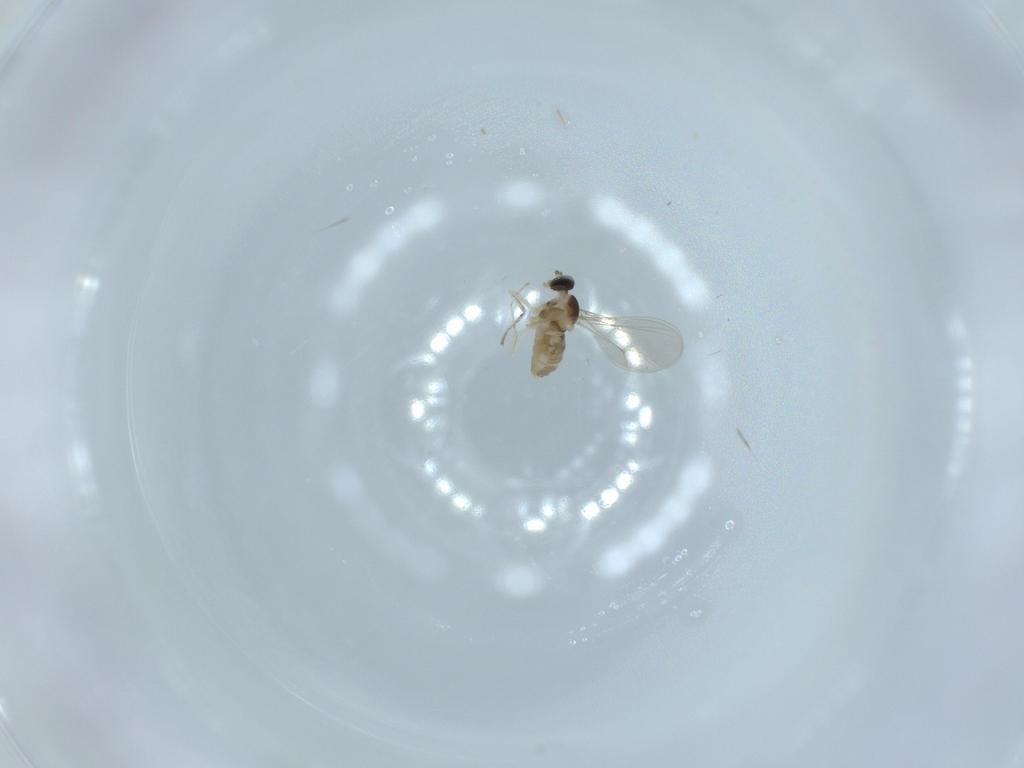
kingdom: Animalia
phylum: Arthropoda
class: Insecta
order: Diptera
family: Cecidomyiidae
